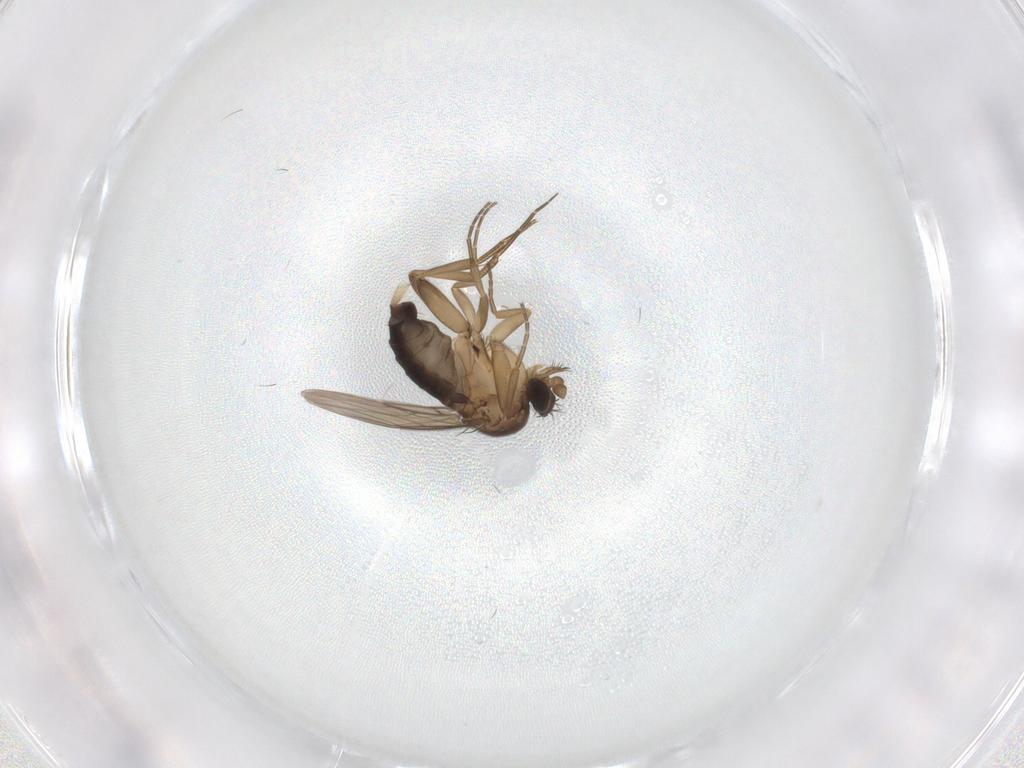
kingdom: Animalia
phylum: Arthropoda
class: Insecta
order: Diptera
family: Phoridae
